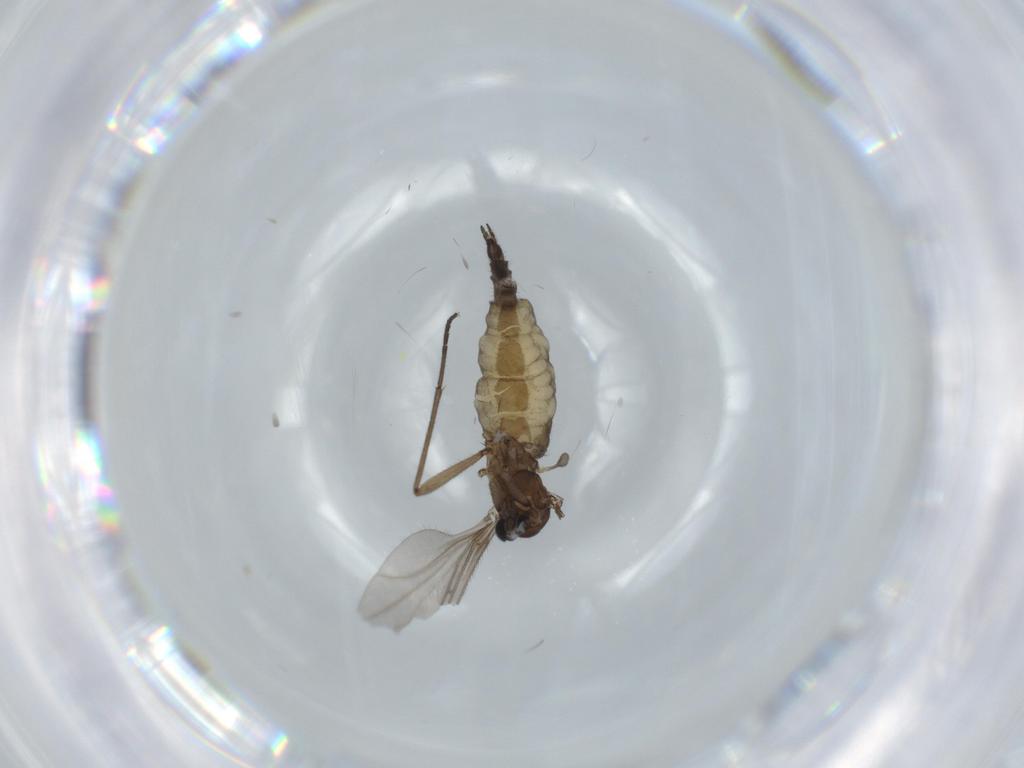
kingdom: Animalia
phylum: Arthropoda
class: Insecta
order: Diptera
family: Sciaridae
